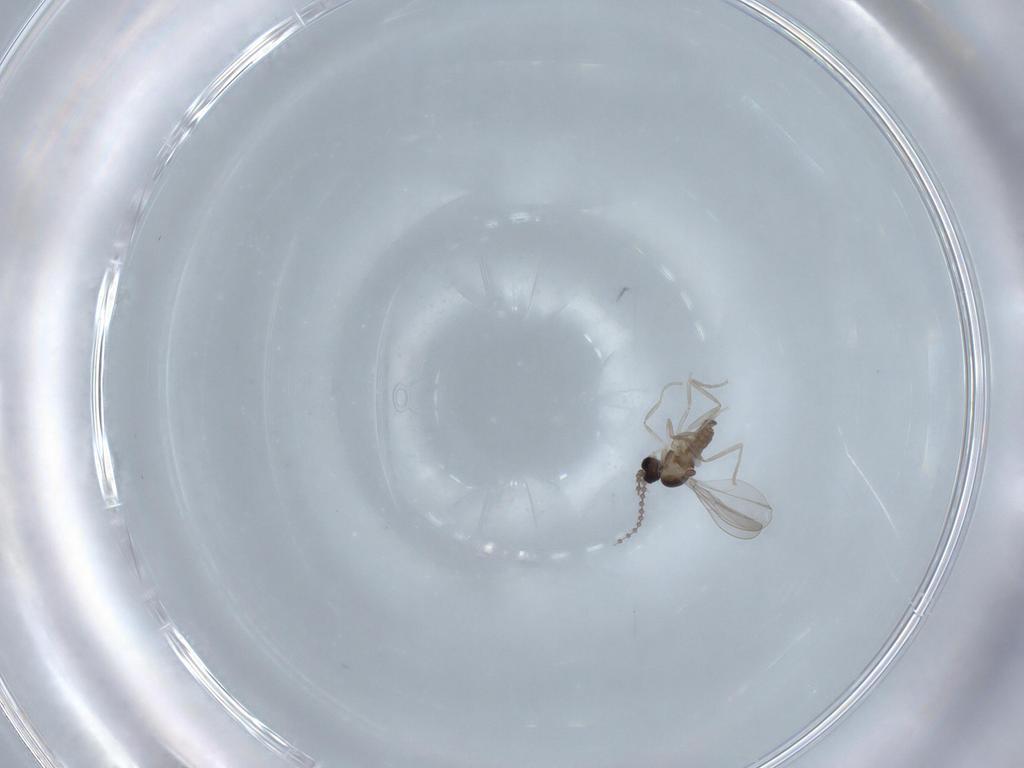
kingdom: Animalia
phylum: Arthropoda
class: Insecta
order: Diptera
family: Cecidomyiidae
